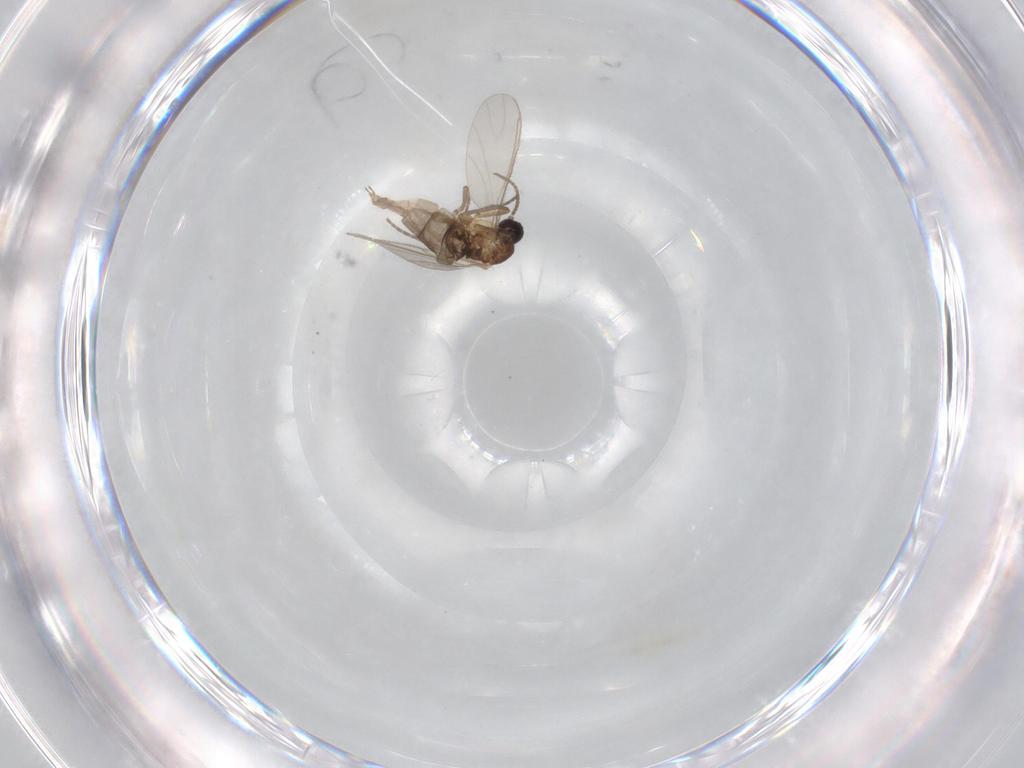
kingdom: Animalia
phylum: Arthropoda
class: Insecta
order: Diptera
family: Sciaridae
